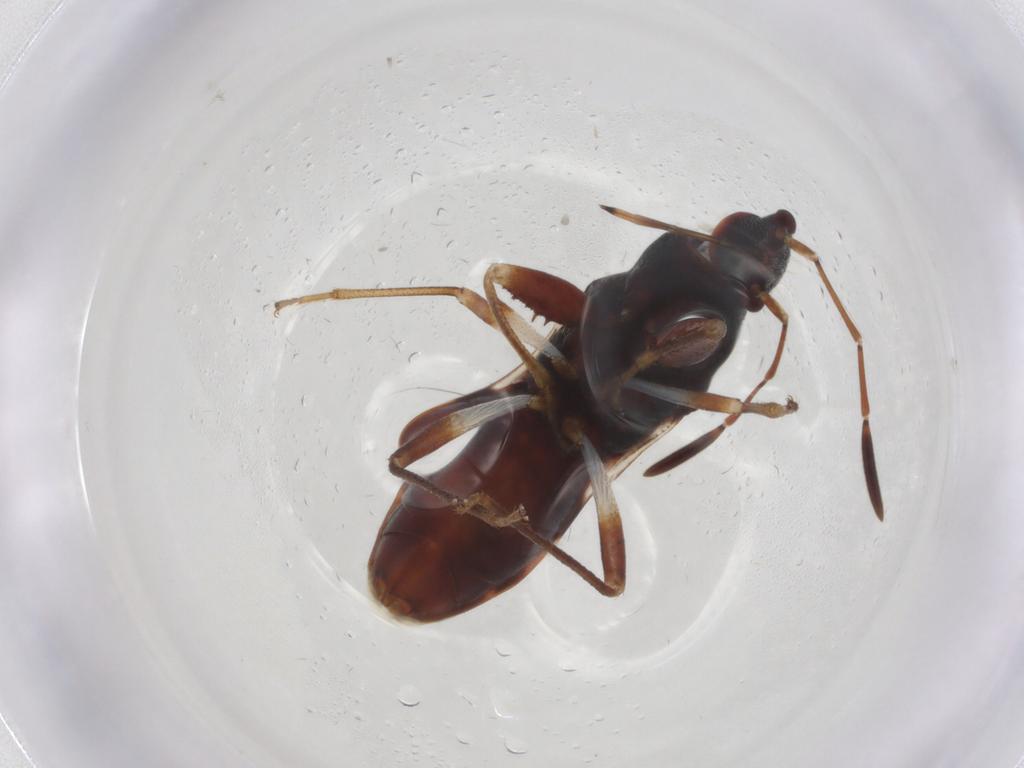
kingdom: Animalia
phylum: Arthropoda
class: Insecta
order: Hemiptera
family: Rhyparochromidae
